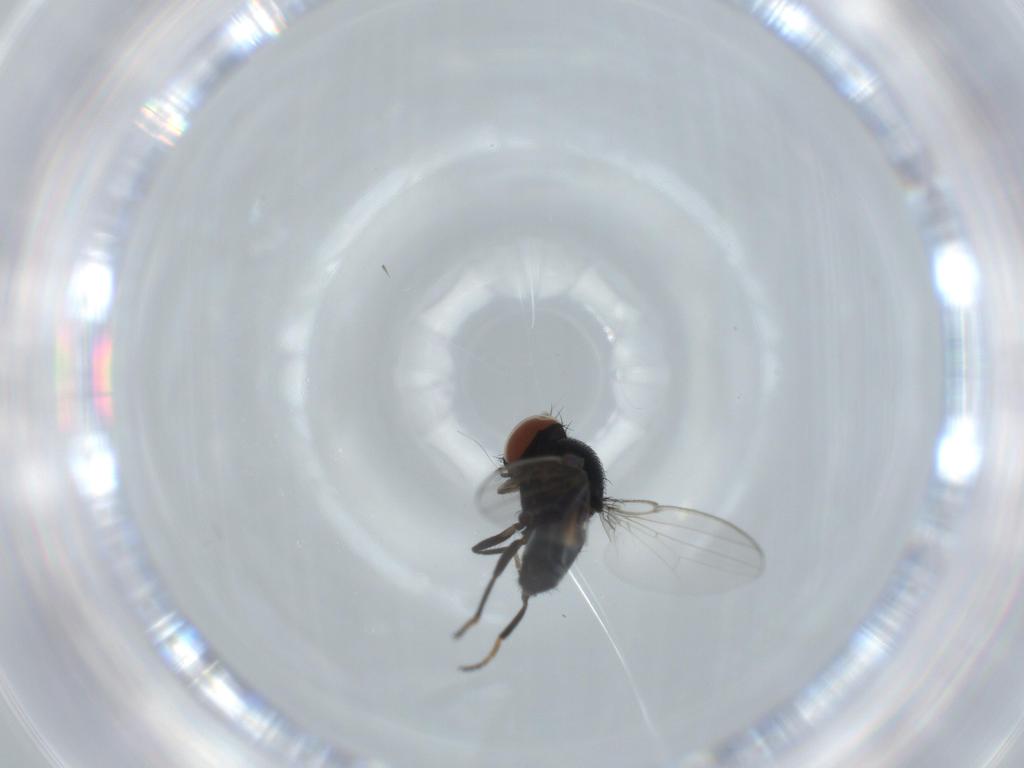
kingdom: Animalia
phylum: Arthropoda
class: Insecta
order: Diptera
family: Milichiidae
